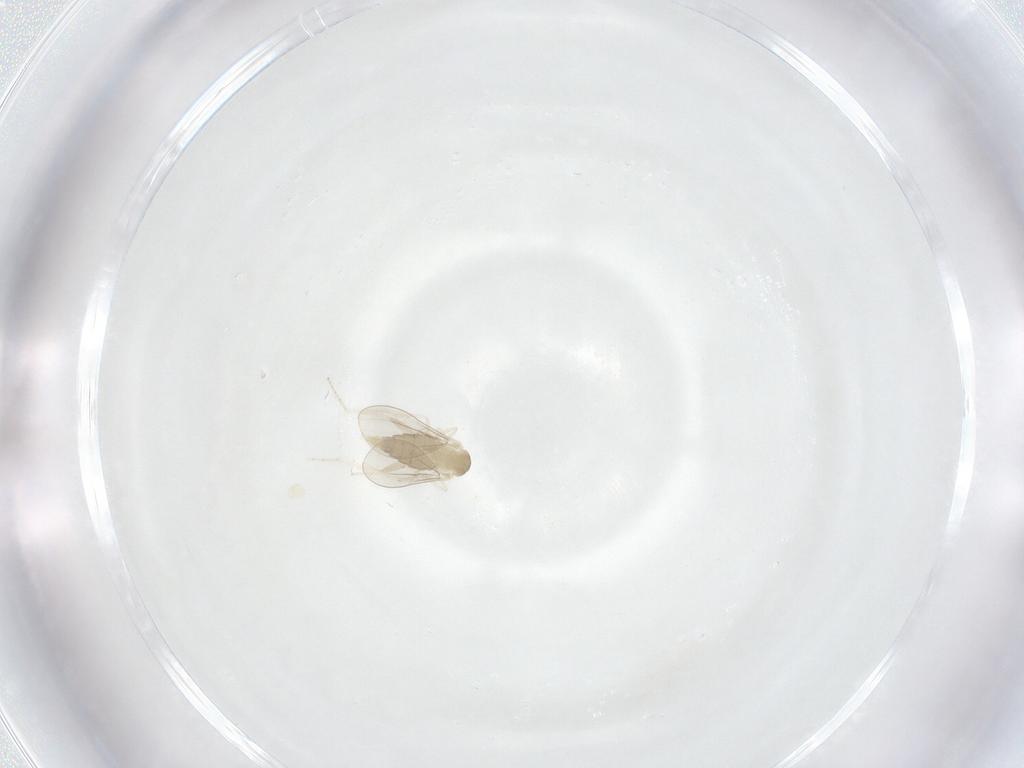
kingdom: Animalia
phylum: Arthropoda
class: Insecta
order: Diptera
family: Cecidomyiidae
